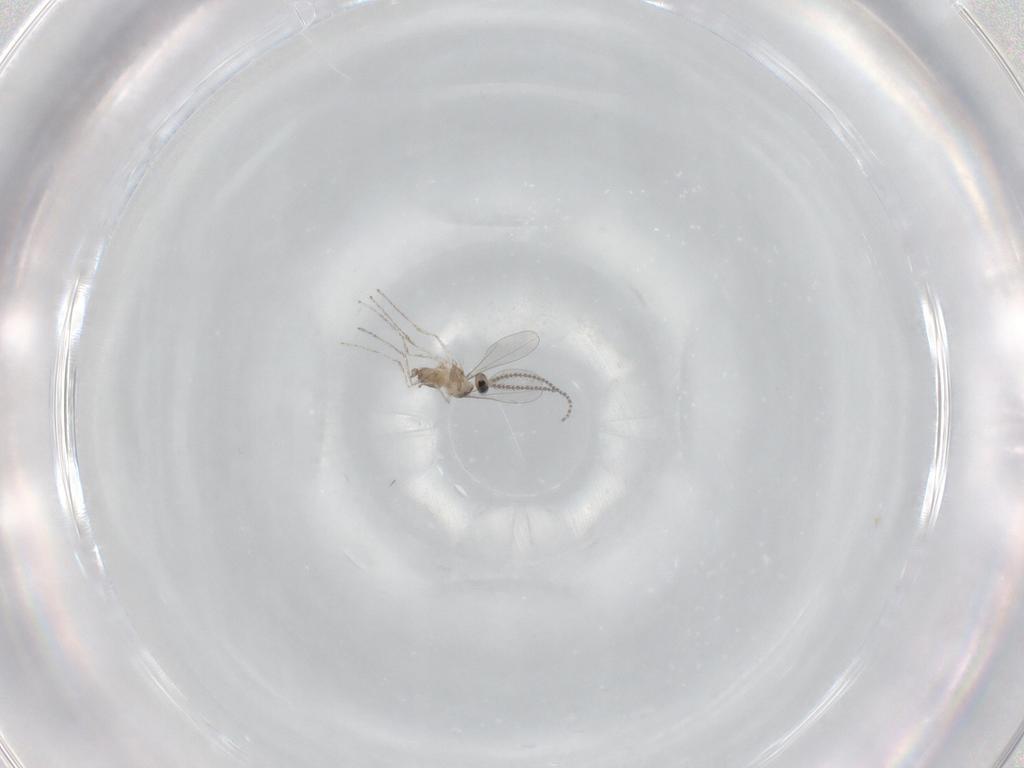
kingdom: Animalia
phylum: Arthropoda
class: Insecta
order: Diptera
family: Cecidomyiidae
